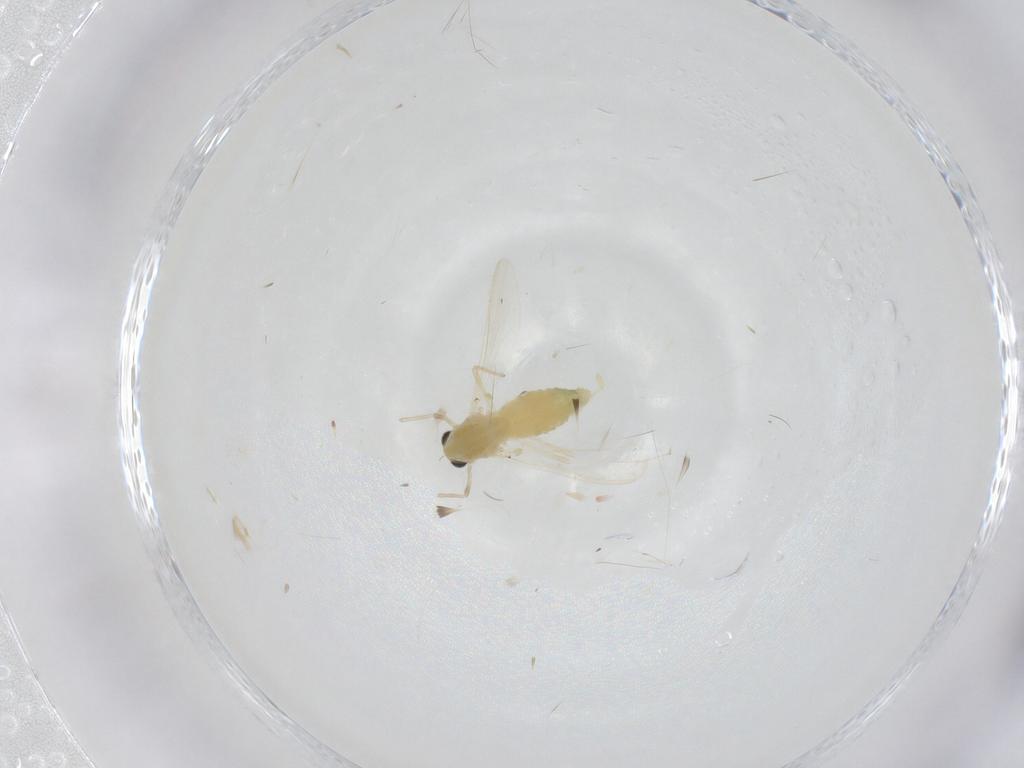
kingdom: Animalia
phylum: Arthropoda
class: Insecta
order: Diptera
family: Chironomidae
